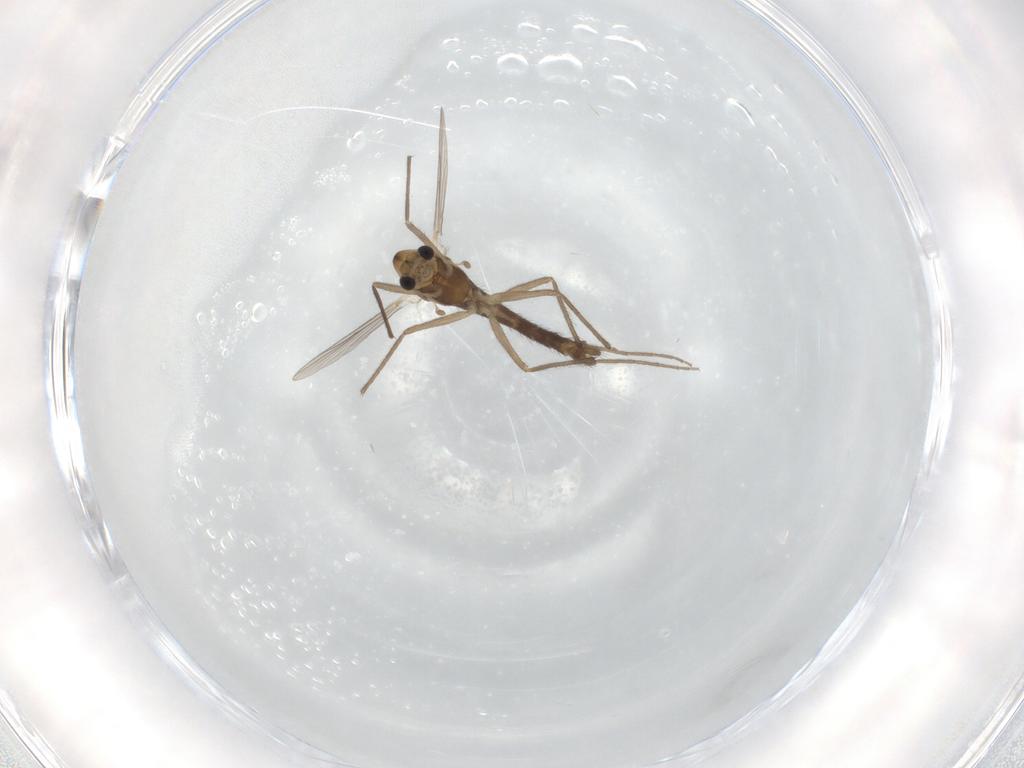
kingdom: Animalia
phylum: Arthropoda
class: Insecta
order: Diptera
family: Chironomidae
